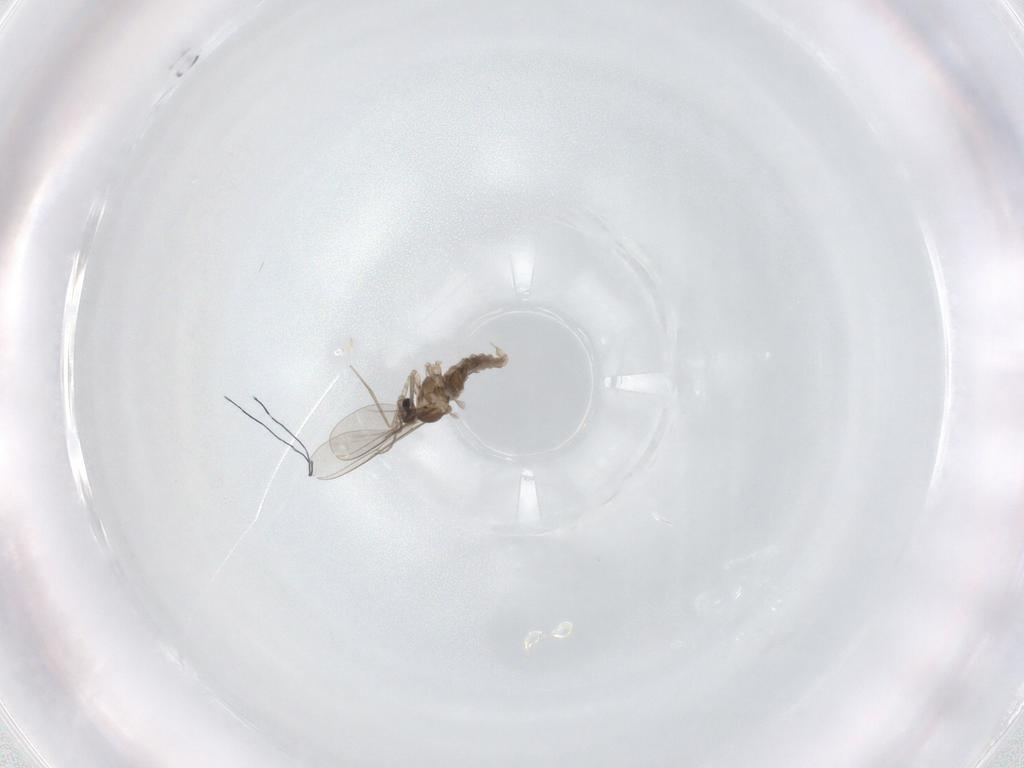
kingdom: Animalia
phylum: Arthropoda
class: Insecta
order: Diptera
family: Cecidomyiidae
